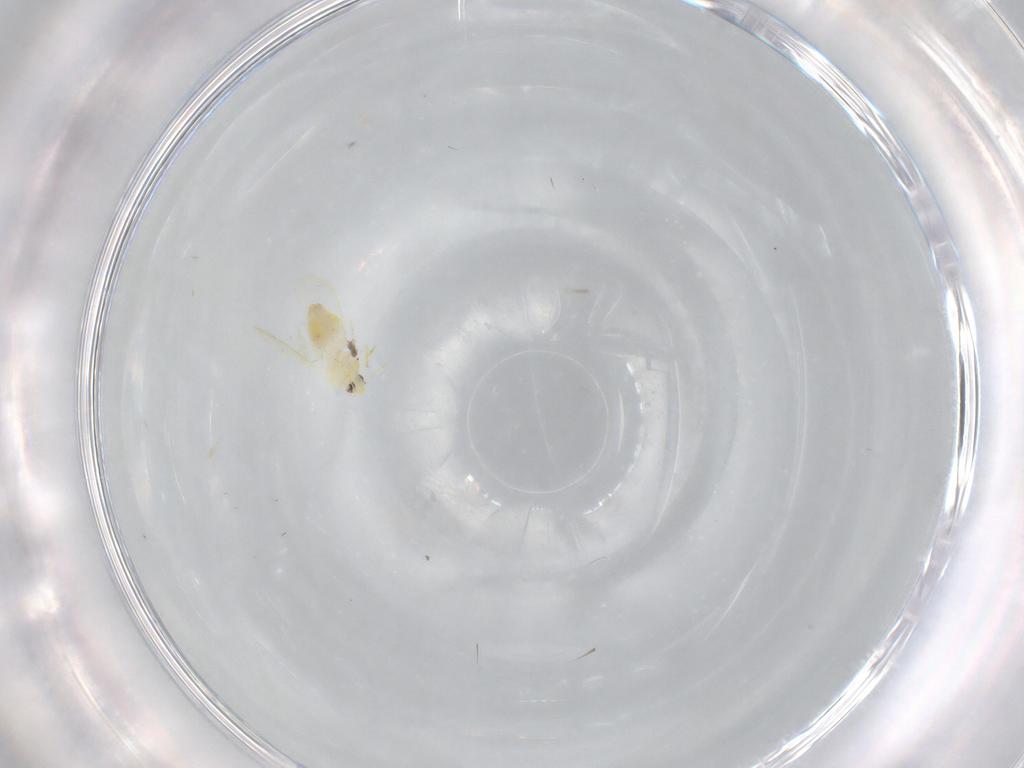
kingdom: Animalia
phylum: Arthropoda
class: Insecta
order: Hemiptera
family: Aleyrodidae
